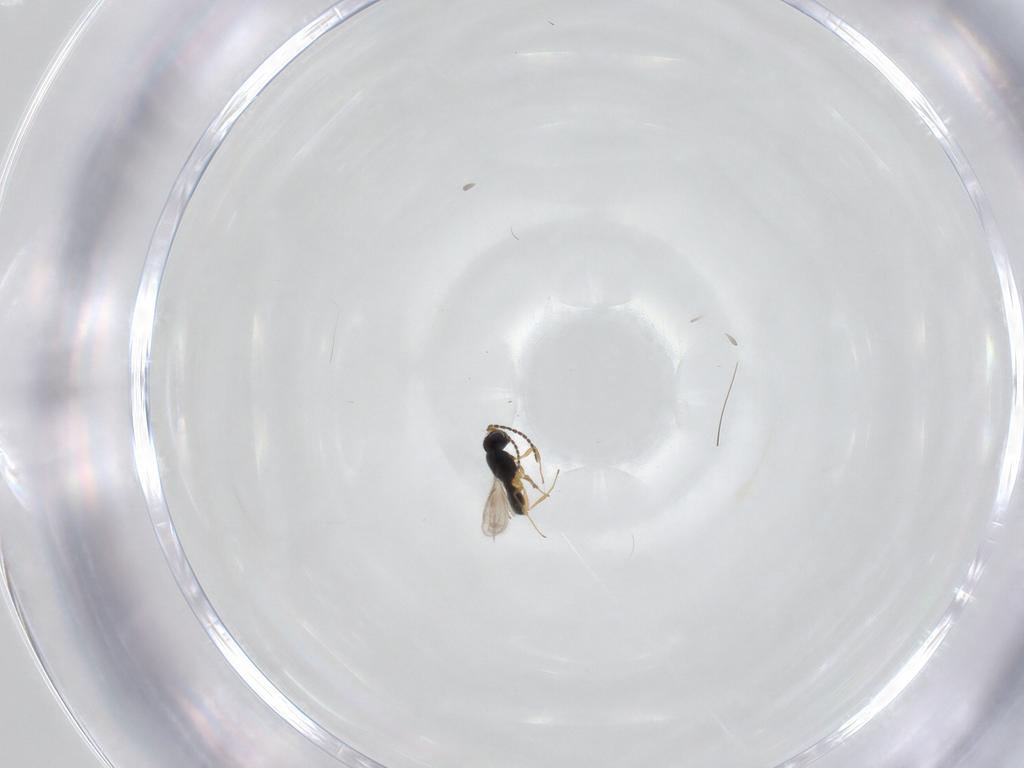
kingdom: Animalia
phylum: Arthropoda
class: Insecta
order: Hymenoptera
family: Scelionidae
